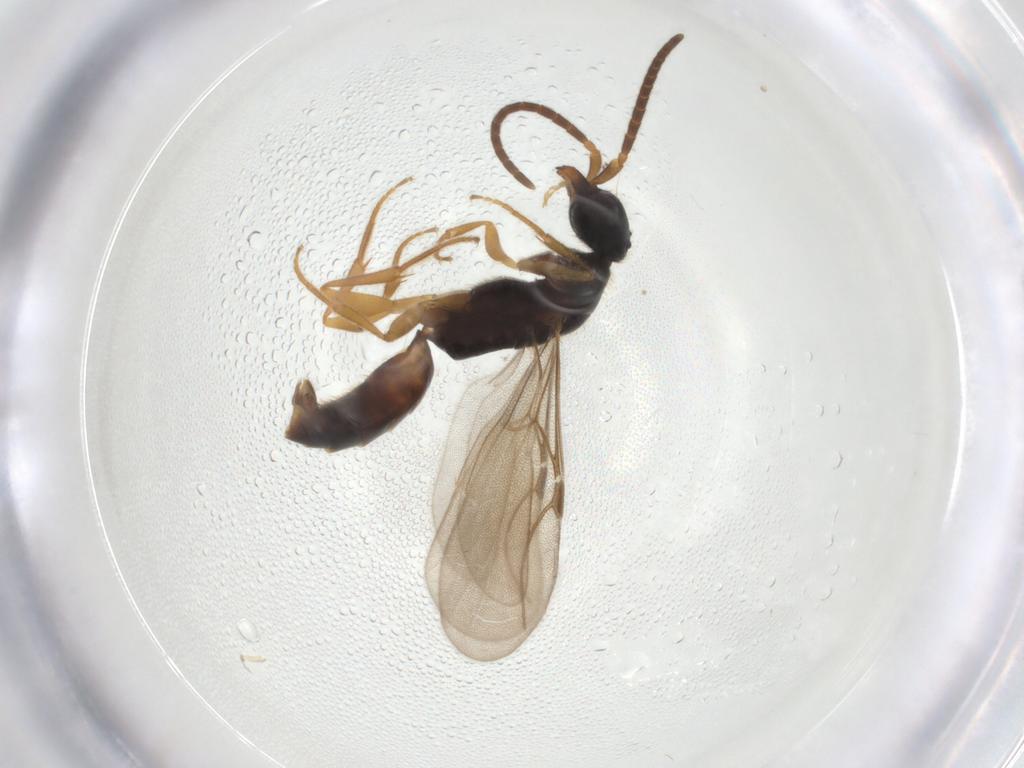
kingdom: Animalia
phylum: Arthropoda
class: Insecta
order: Hymenoptera
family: Bethylidae
